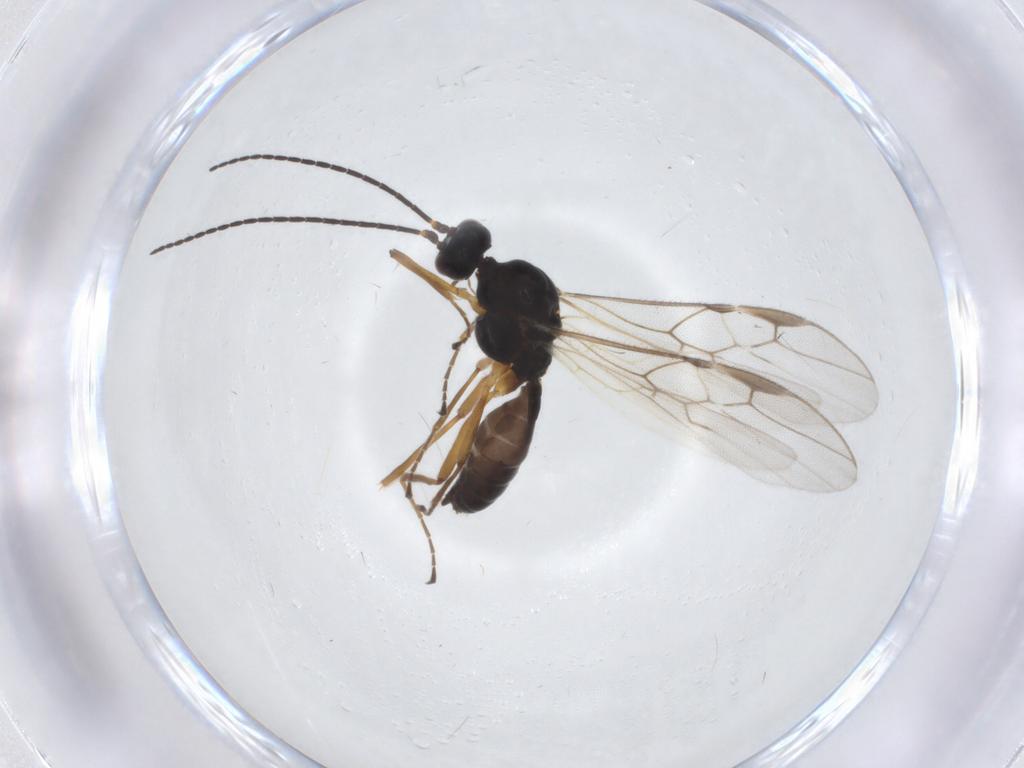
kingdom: Animalia
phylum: Arthropoda
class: Insecta
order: Hymenoptera
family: Braconidae
